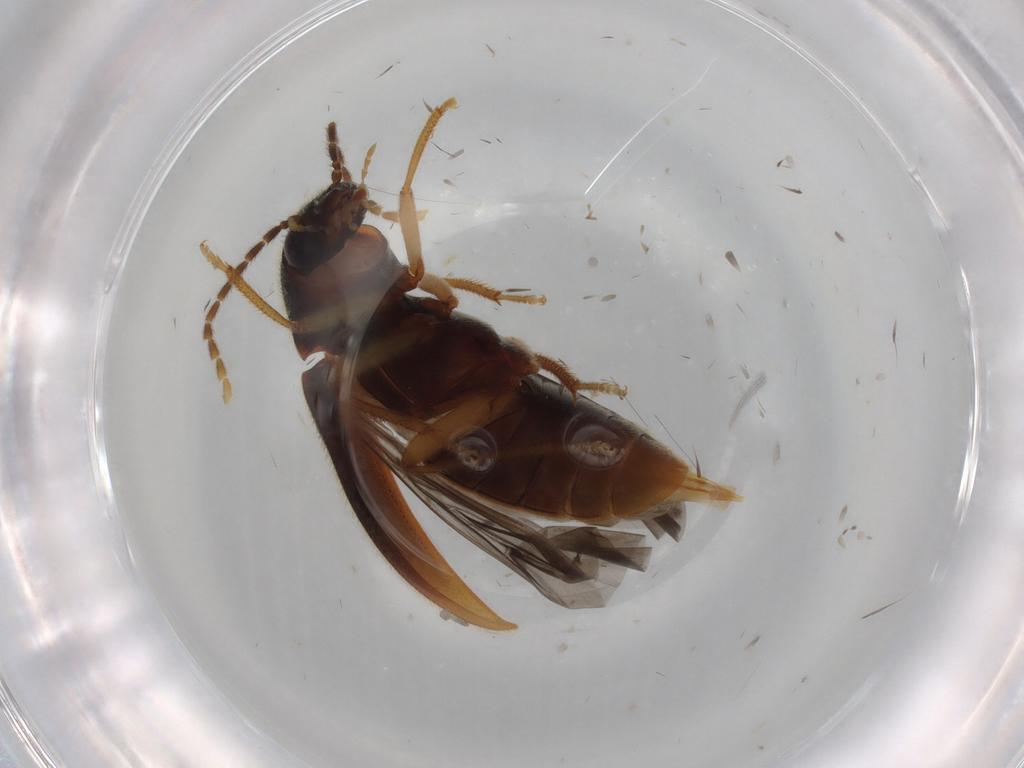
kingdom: Animalia
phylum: Arthropoda
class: Insecta
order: Coleoptera
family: Ptilodactylidae
